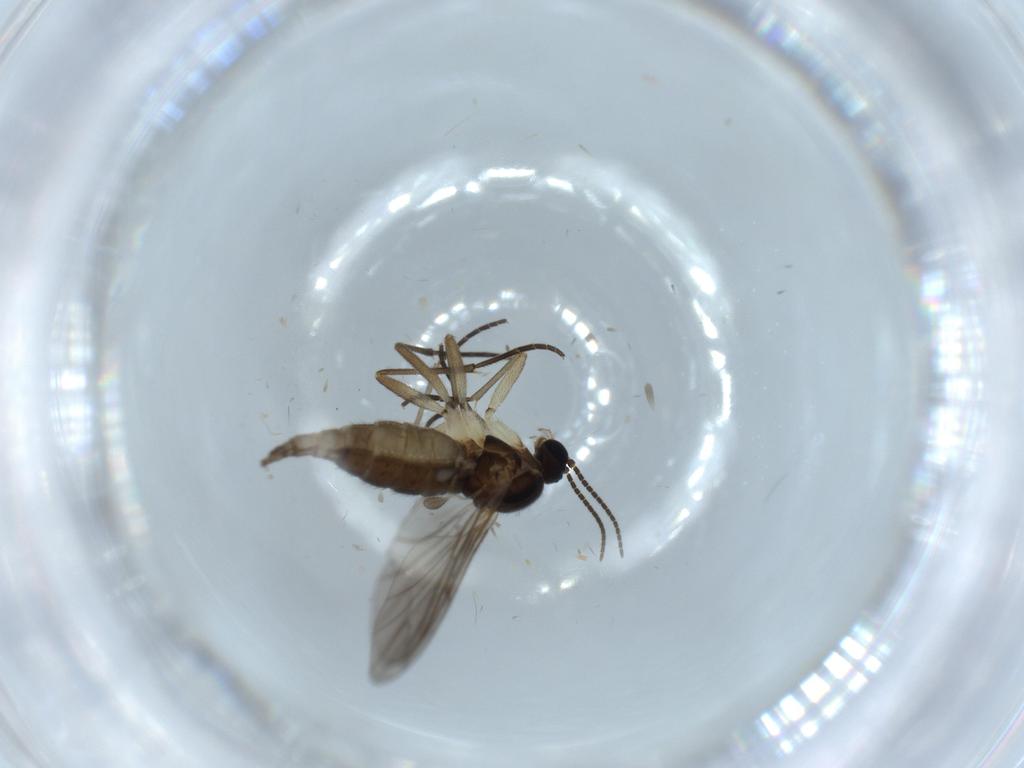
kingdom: Animalia
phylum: Arthropoda
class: Insecta
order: Diptera
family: Sciaridae
